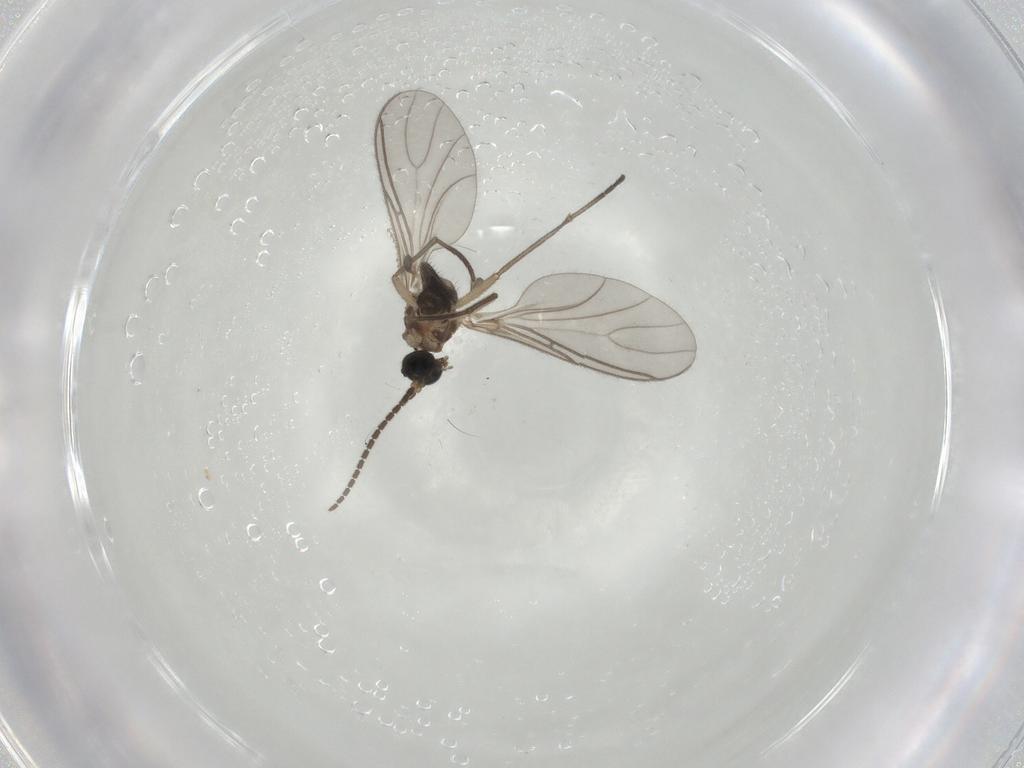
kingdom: Animalia
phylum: Arthropoda
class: Insecta
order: Diptera
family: Sciaridae
